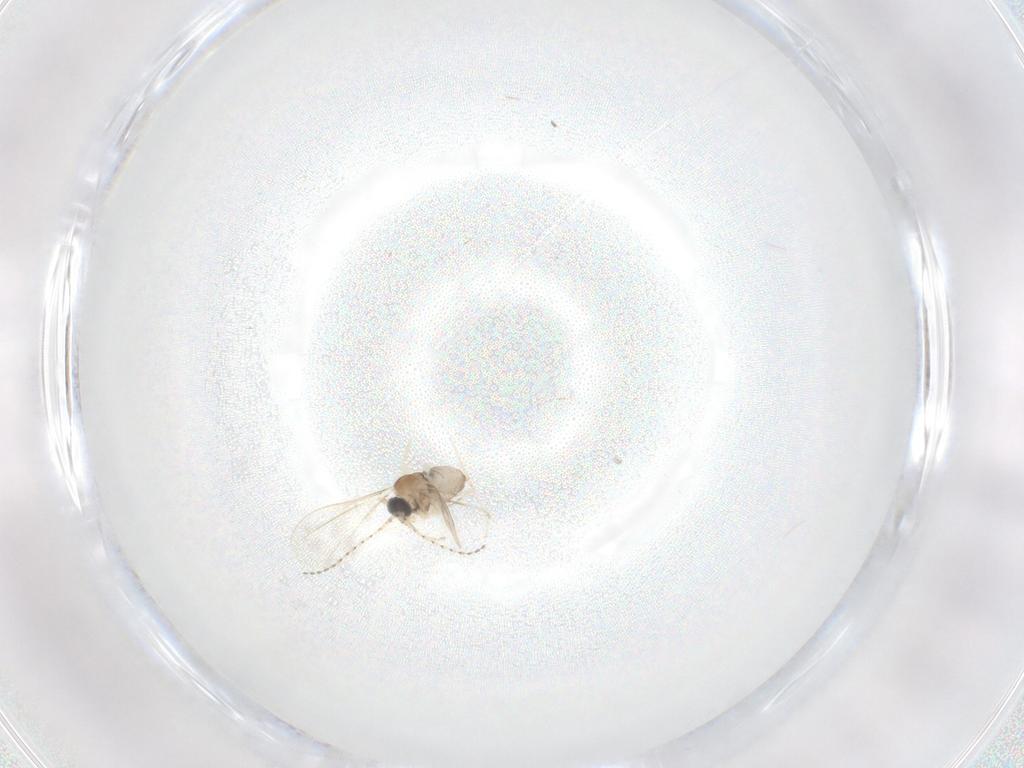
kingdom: Animalia
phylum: Arthropoda
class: Insecta
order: Diptera
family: Cecidomyiidae
